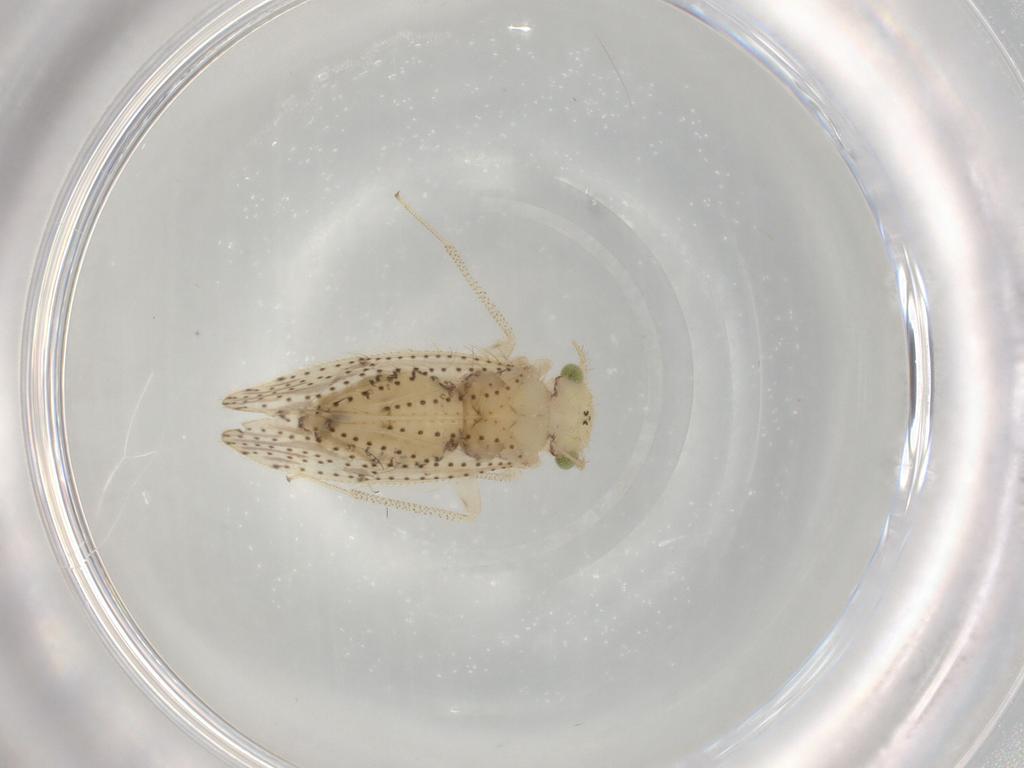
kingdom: Animalia
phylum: Arthropoda
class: Insecta
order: Psocodea
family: Myopsocidae
